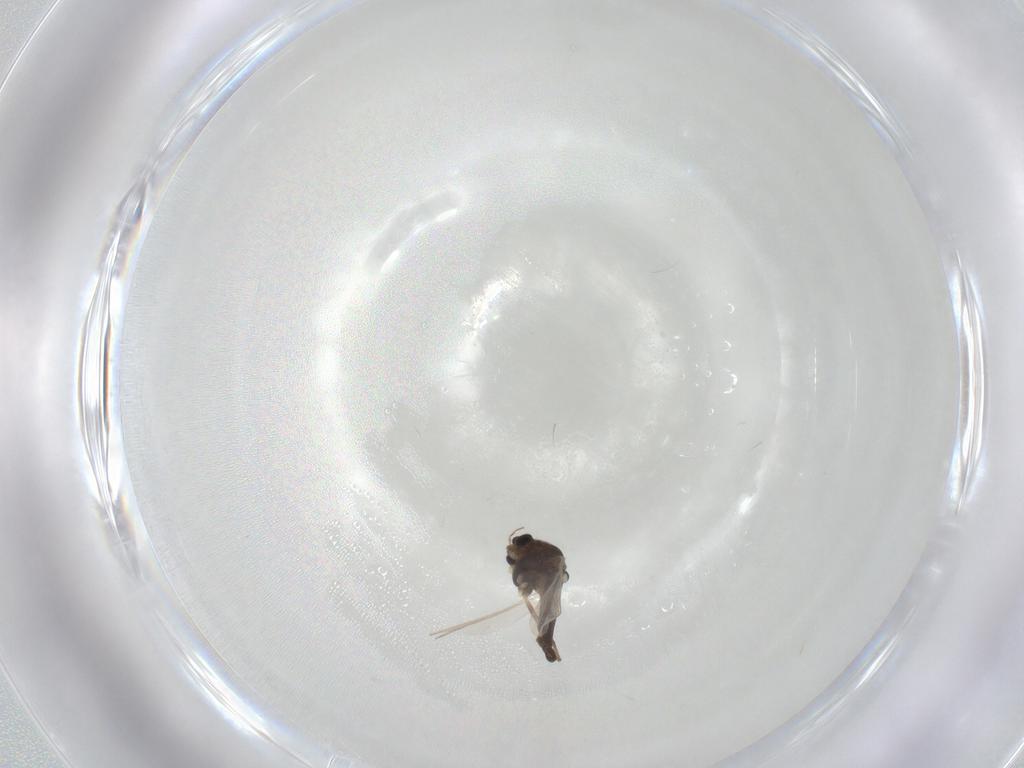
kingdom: Animalia
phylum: Arthropoda
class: Insecta
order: Diptera
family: Chironomidae
